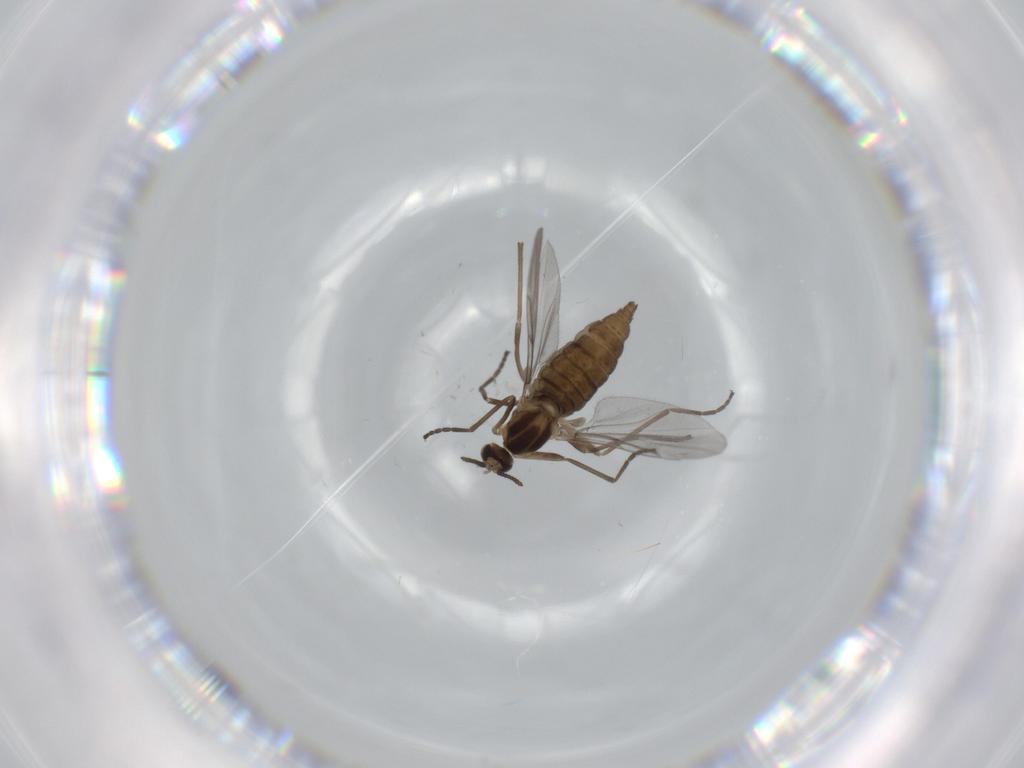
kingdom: Animalia
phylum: Arthropoda
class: Insecta
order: Diptera
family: Cecidomyiidae
